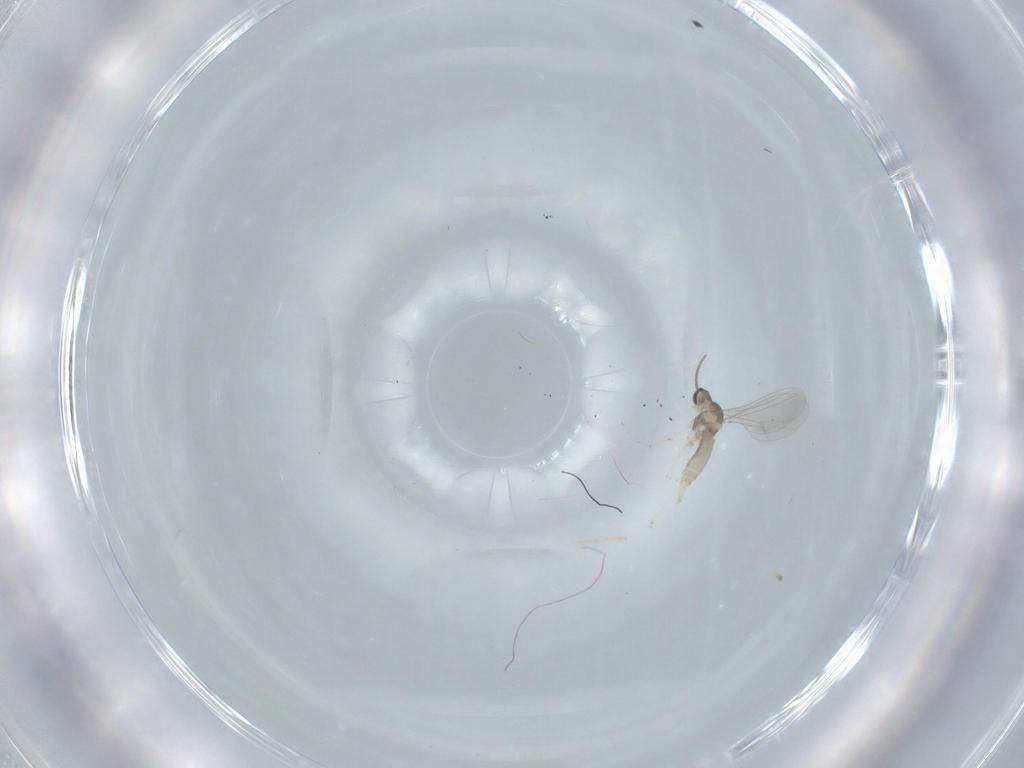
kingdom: Animalia
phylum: Arthropoda
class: Insecta
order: Diptera
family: Cecidomyiidae
